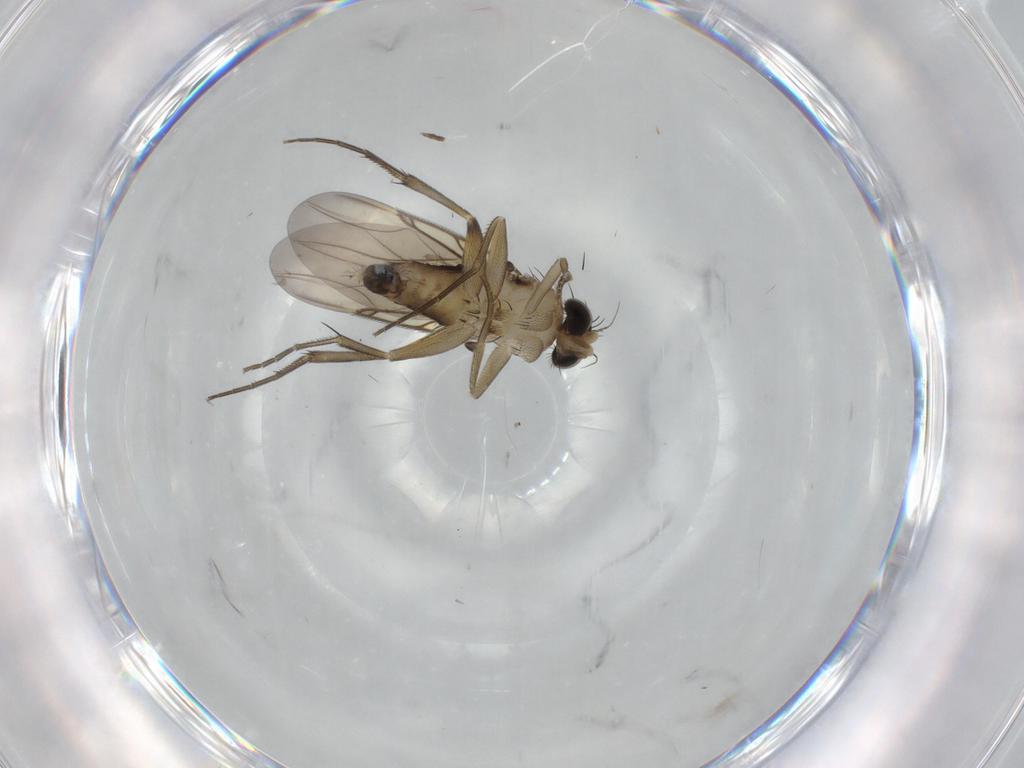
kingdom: Animalia
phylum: Arthropoda
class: Insecta
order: Diptera
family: Phoridae
